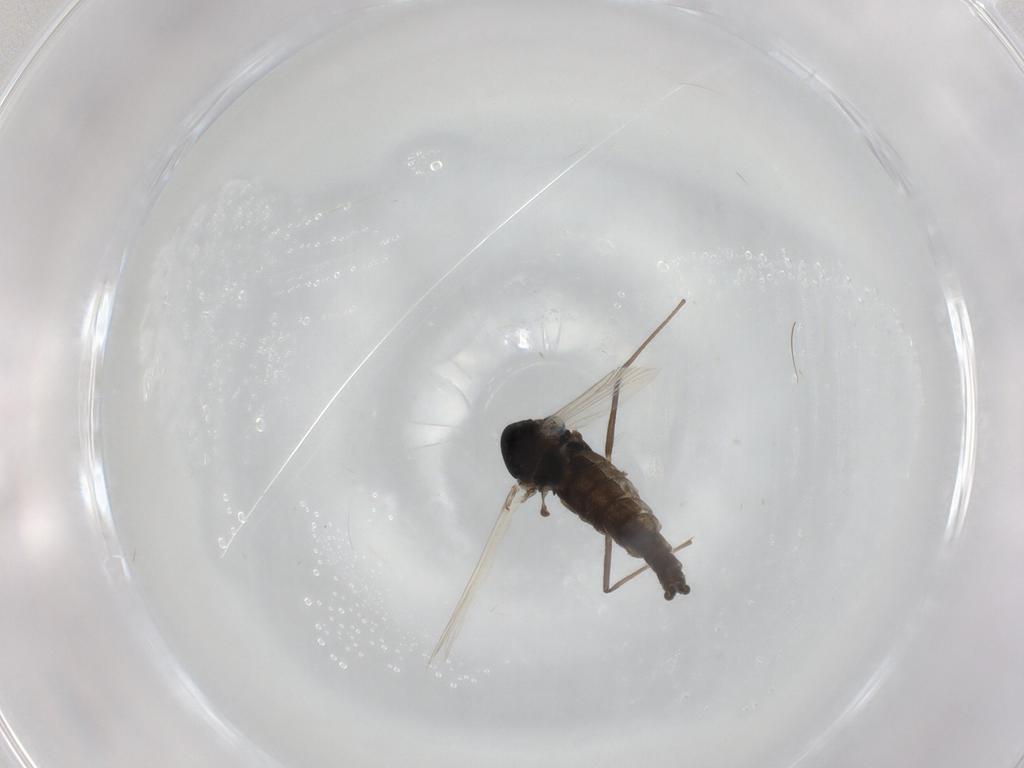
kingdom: Animalia
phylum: Arthropoda
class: Insecta
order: Diptera
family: Chironomidae
